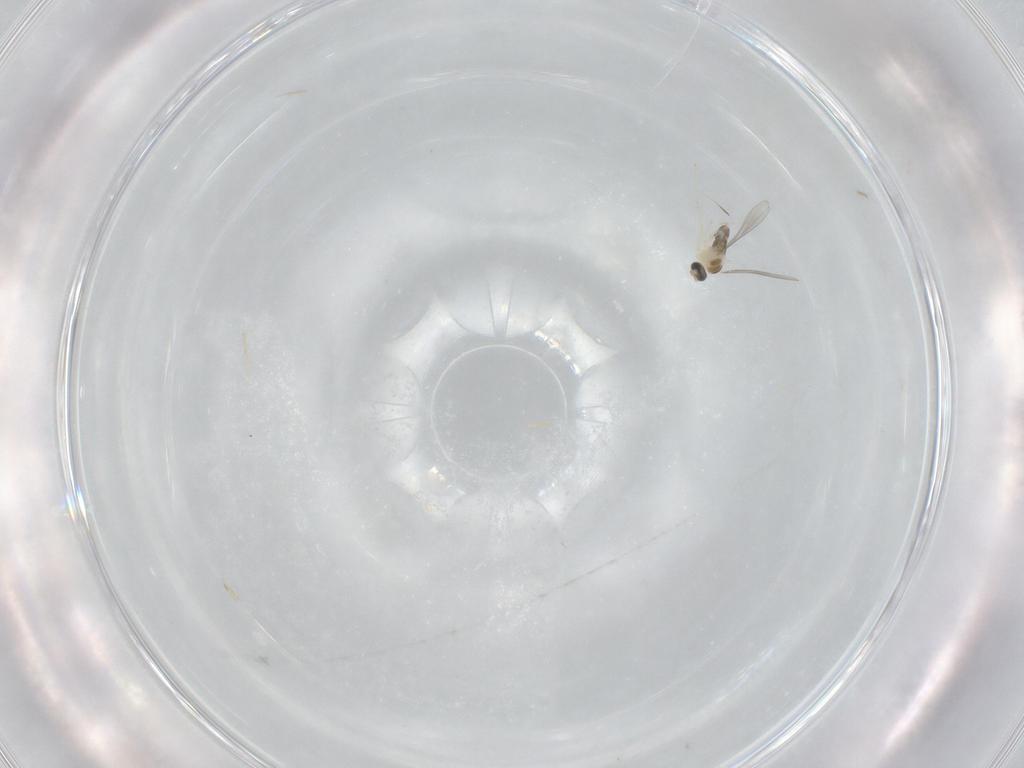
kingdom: Animalia
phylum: Arthropoda
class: Insecta
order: Diptera
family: Cecidomyiidae
